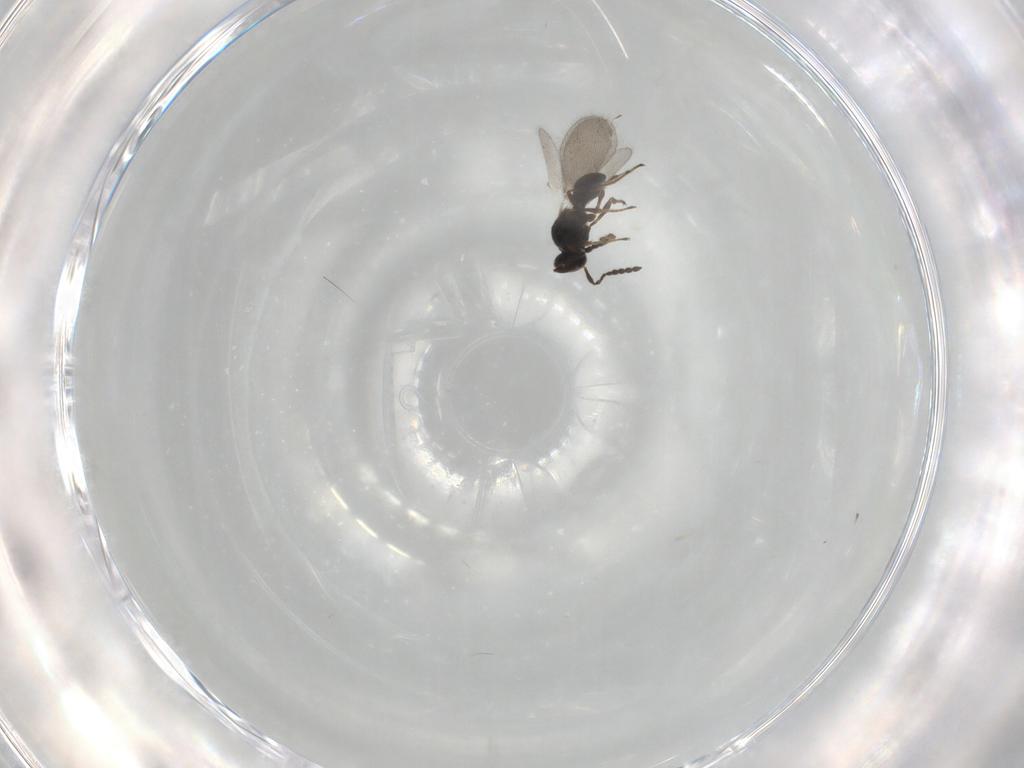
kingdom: Animalia
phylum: Arthropoda
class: Insecta
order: Hymenoptera
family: Platygastridae
